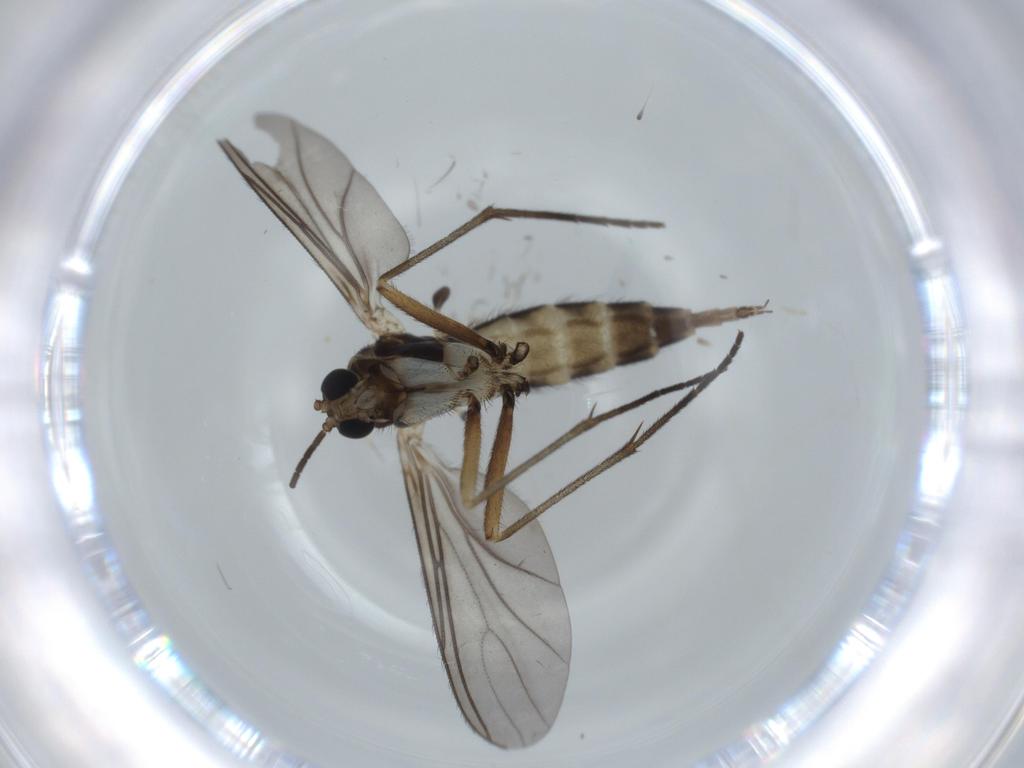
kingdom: Animalia
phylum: Arthropoda
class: Insecta
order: Diptera
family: Cecidomyiidae
